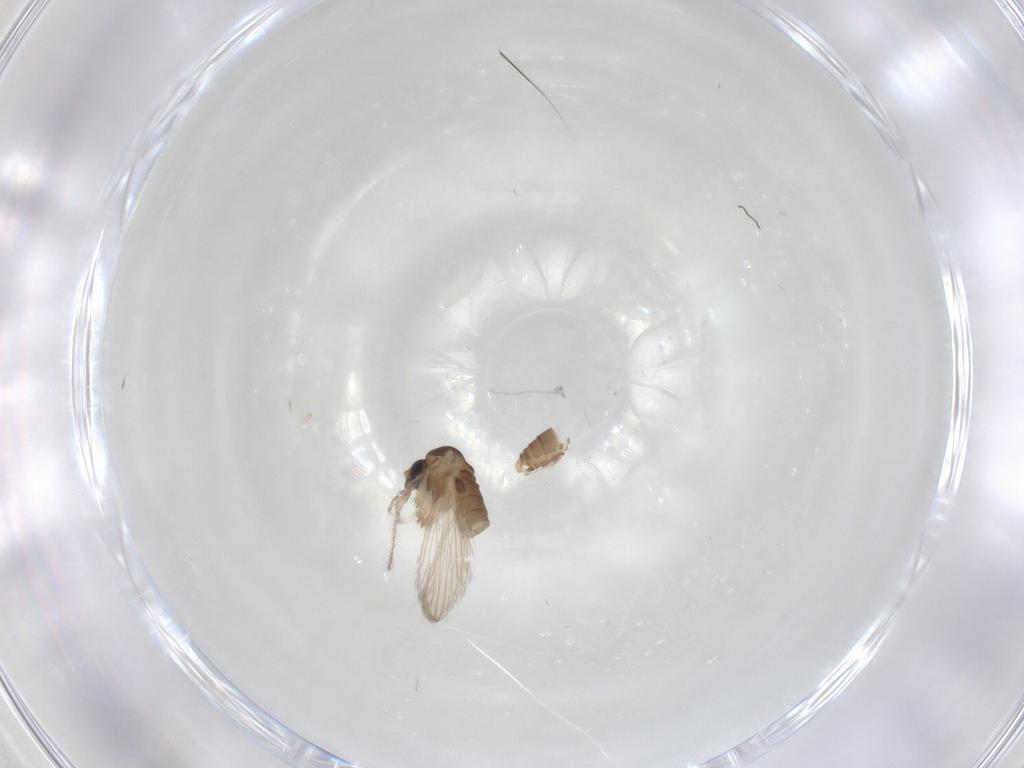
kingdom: Animalia
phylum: Arthropoda
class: Insecta
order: Diptera
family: Psychodidae
